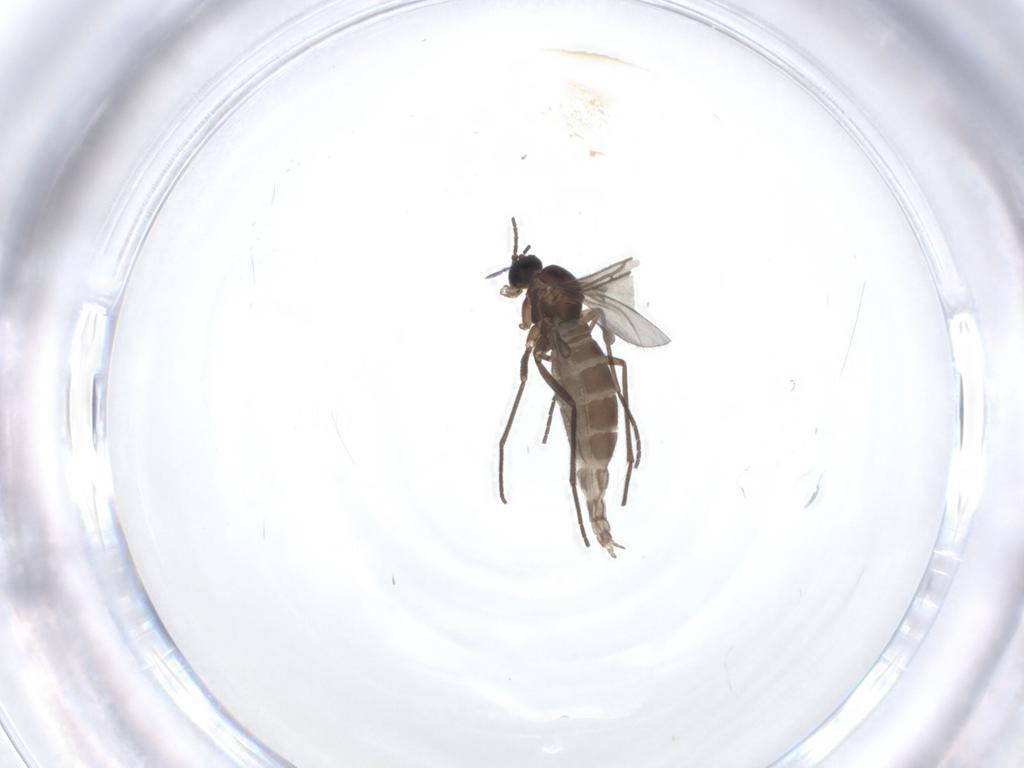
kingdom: Animalia
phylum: Arthropoda
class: Insecta
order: Diptera
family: Sciaridae
